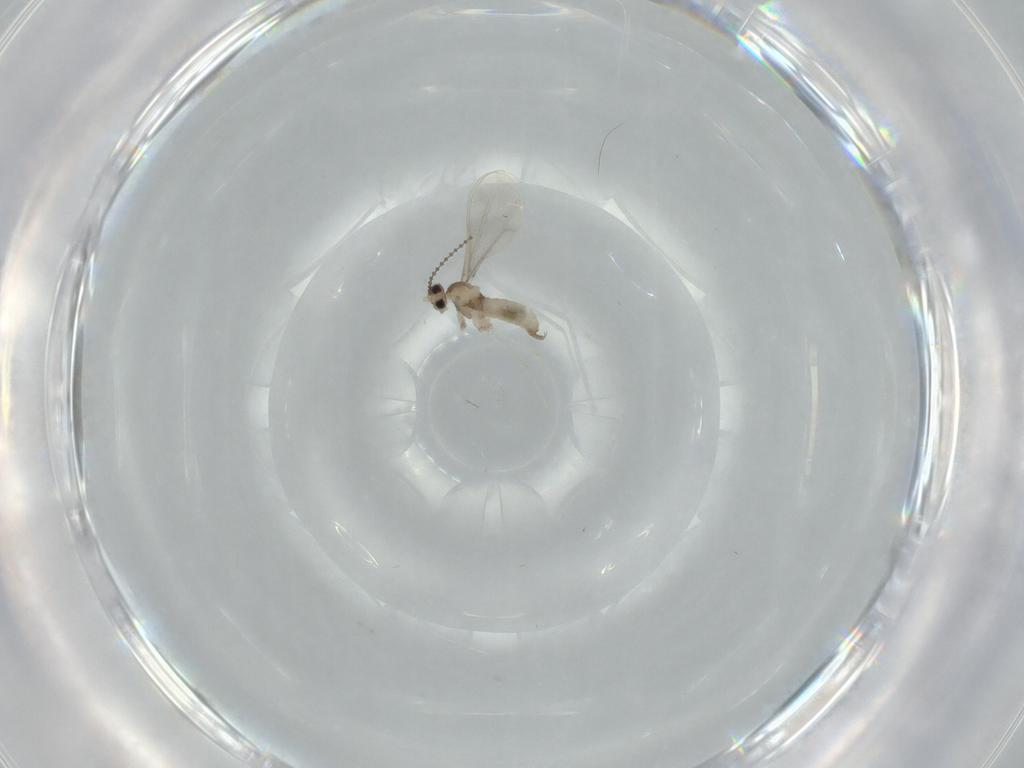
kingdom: Animalia
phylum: Arthropoda
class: Insecta
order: Diptera
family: Cecidomyiidae
